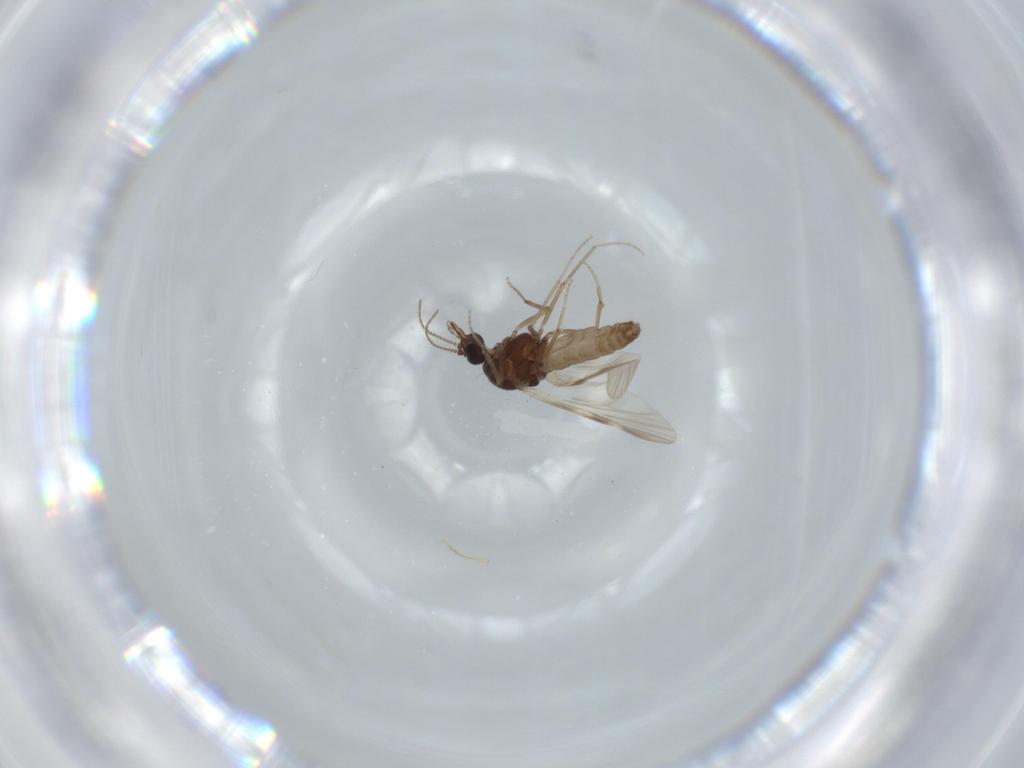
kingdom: Animalia
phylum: Arthropoda
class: Insecta
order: Diptera
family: Ceratopogonidae
